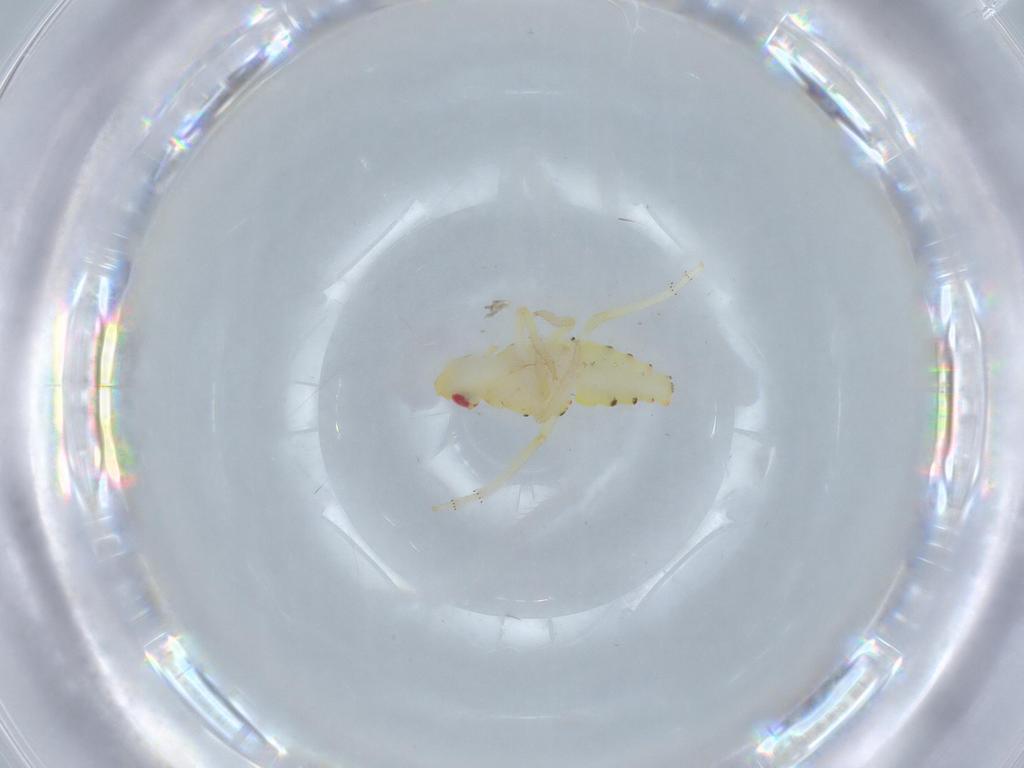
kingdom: Animalia
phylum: Arthropoda
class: Insecta
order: Hemiptera
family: Tropiduchidae
